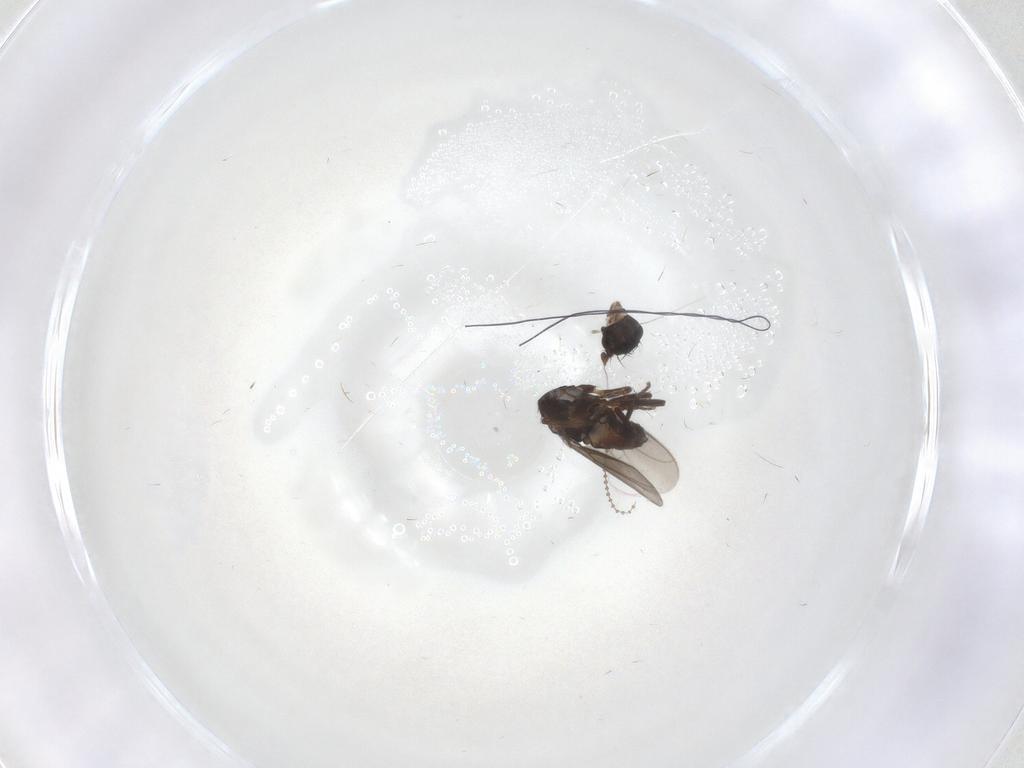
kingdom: Animalia
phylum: Arthropoda
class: Insecta
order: Diptera
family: Sphaeroceridae
